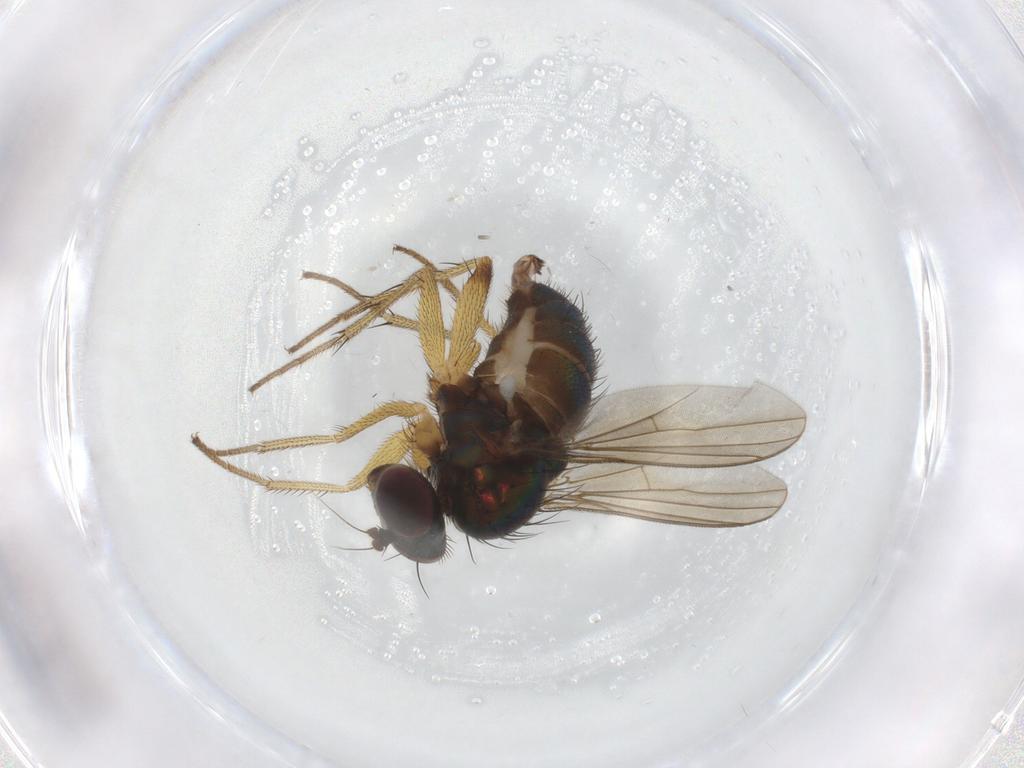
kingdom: Animalia
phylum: Arthropoda
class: Insecta
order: Diptera
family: Dolichopodidae
